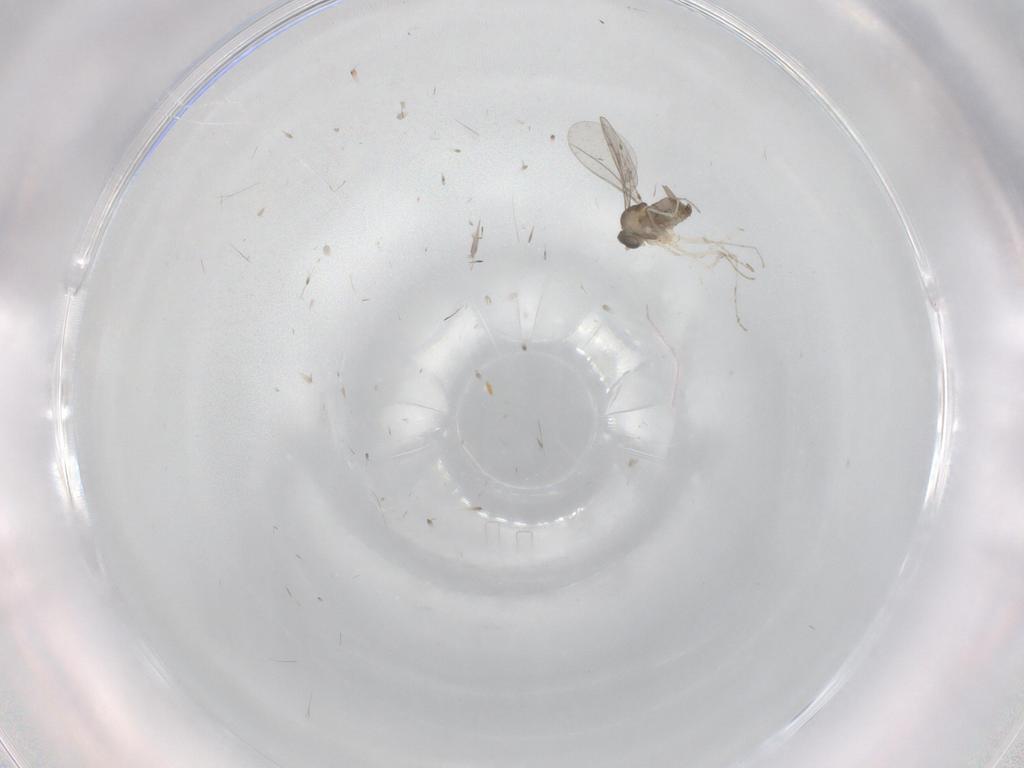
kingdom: Animalia
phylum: Arthropoda
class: Insecta
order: Diptera
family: Cecidomyiidae
